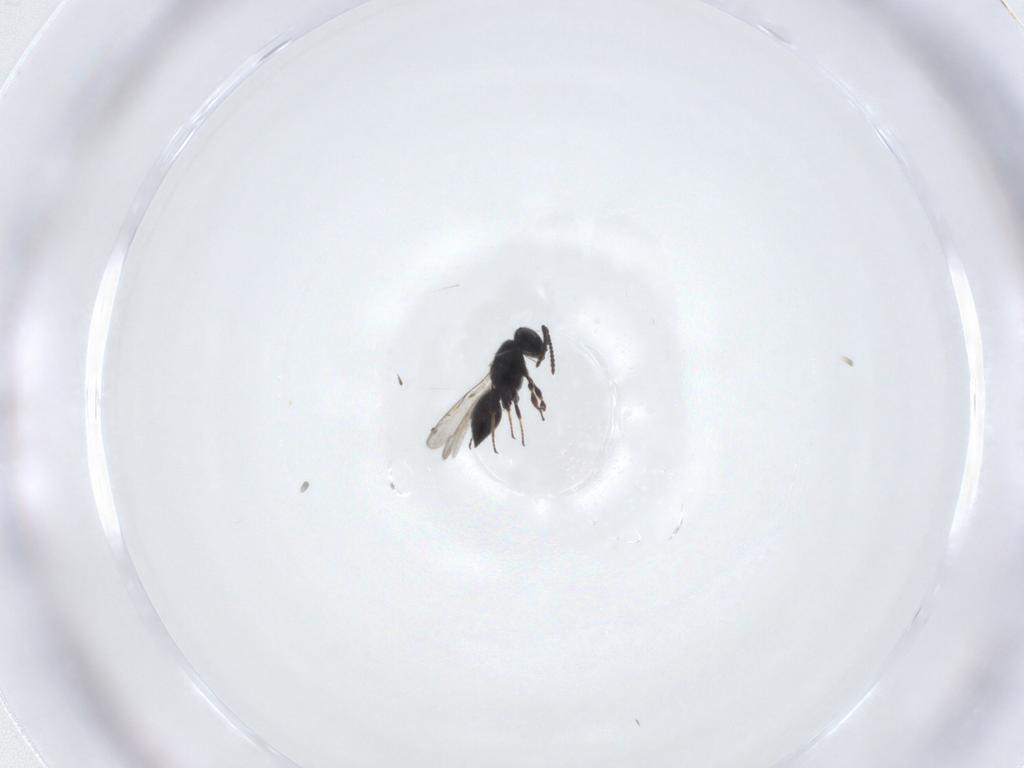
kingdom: Animalia
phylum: Arthropoda
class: Insecta
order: Hymenoptera
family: Scelionidae
